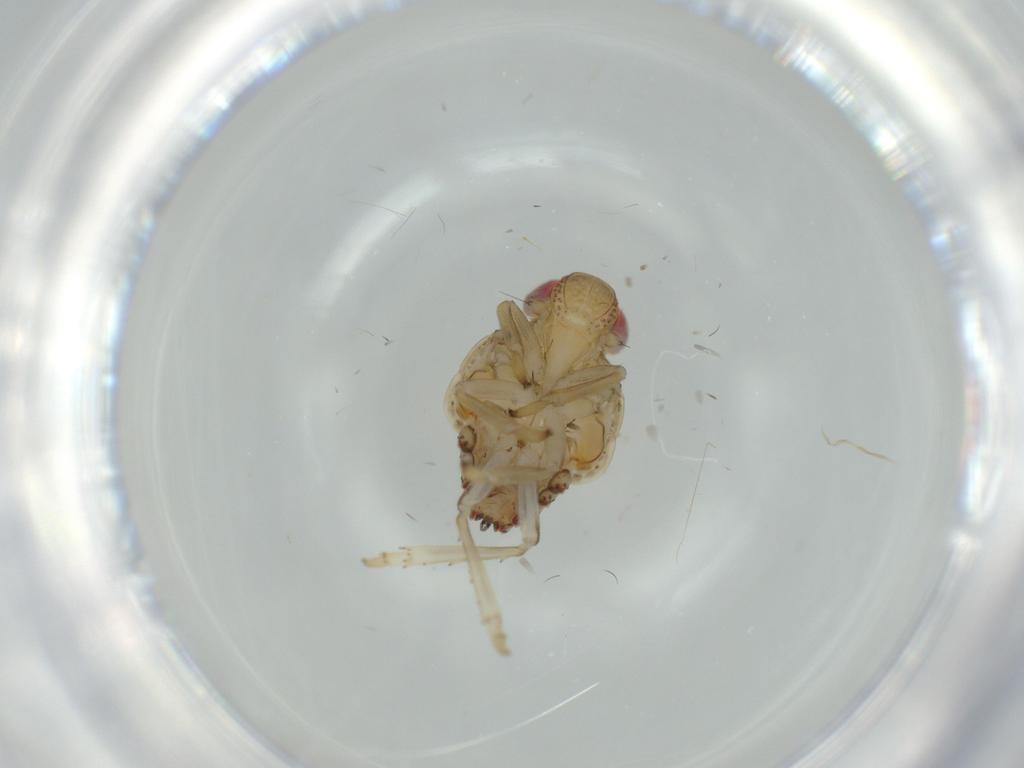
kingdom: Animalia
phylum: Arthropoda
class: Insecta
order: Hemiptera
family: Issidae
